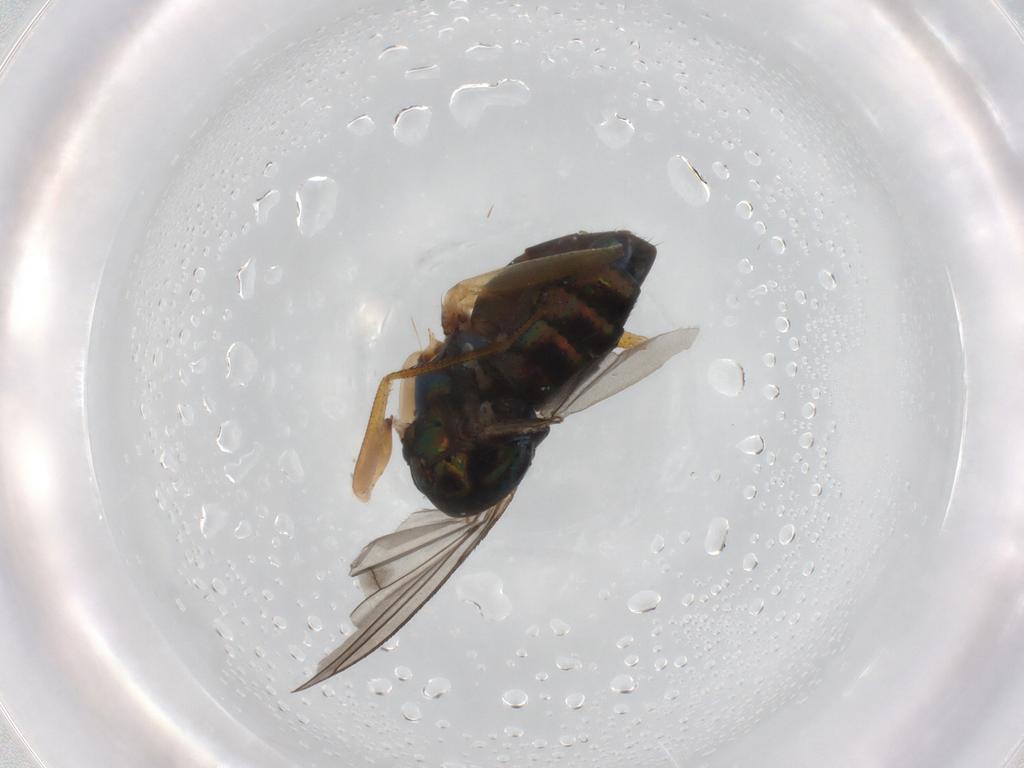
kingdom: Animalia
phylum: Arthropoda
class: Insecta
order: Diptera
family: Dolichopodidae
